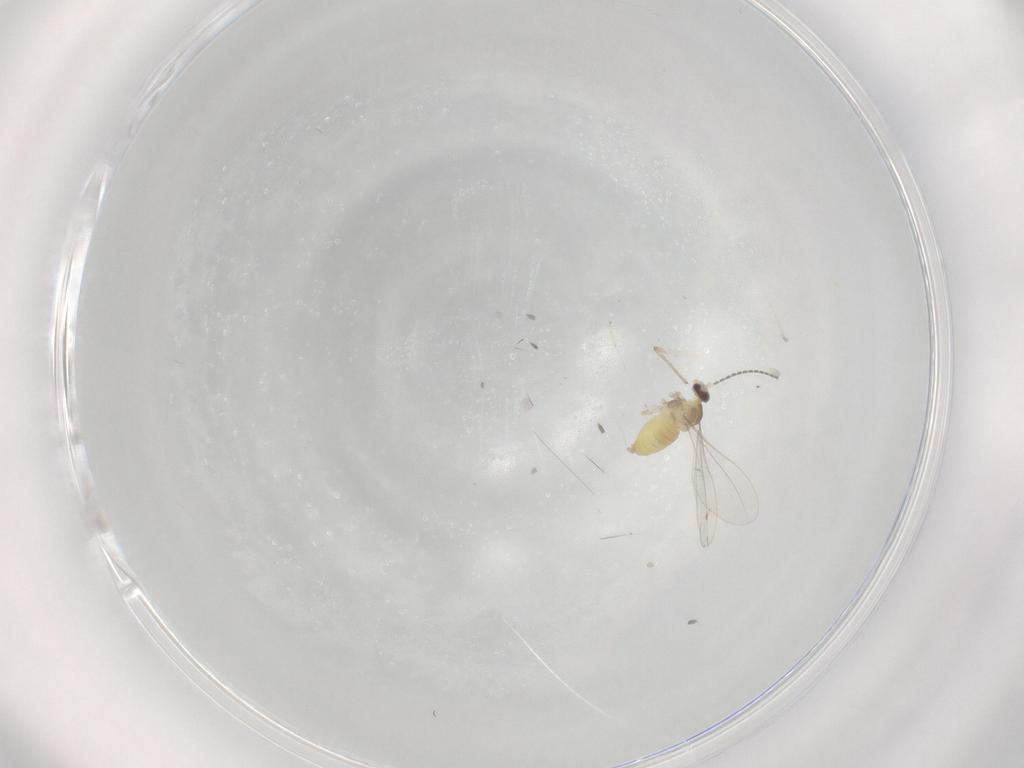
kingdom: Animalia
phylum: Arthropoda
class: Insecta
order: Diptera
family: Cecidomyiidae
